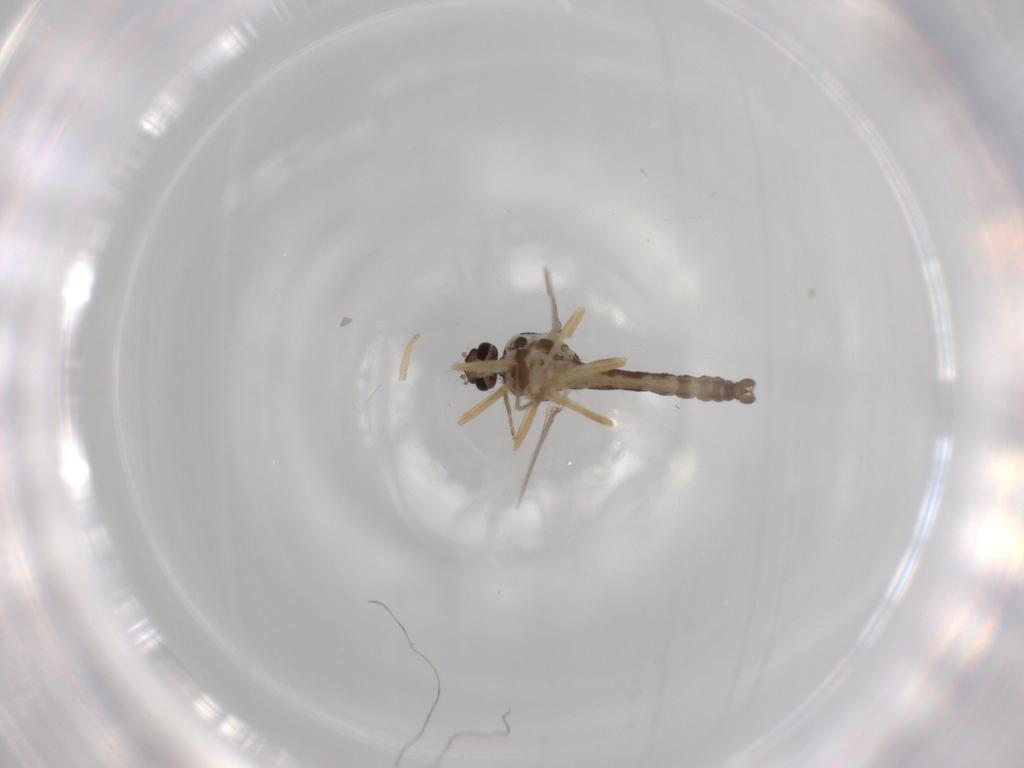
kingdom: Animalia
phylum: Arthropoda
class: Insecta
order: Diptera
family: Ceratopogonidae
